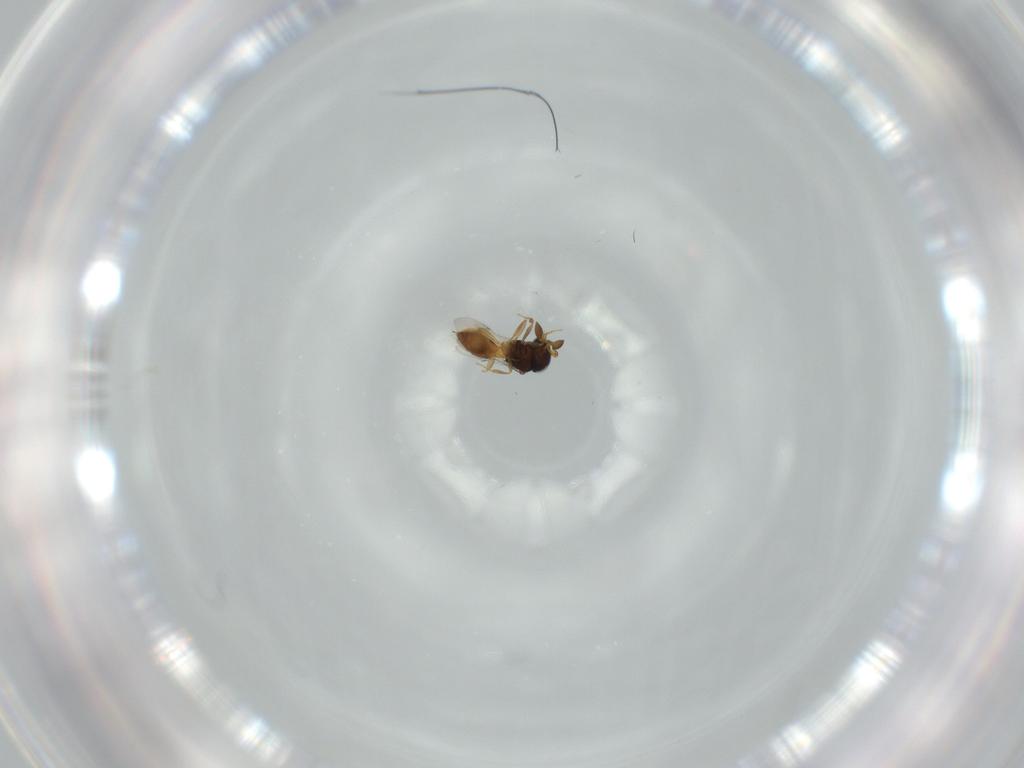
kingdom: Animalia
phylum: Arthropoda
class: Insecta
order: Hymenoptera
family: Scelionidae
